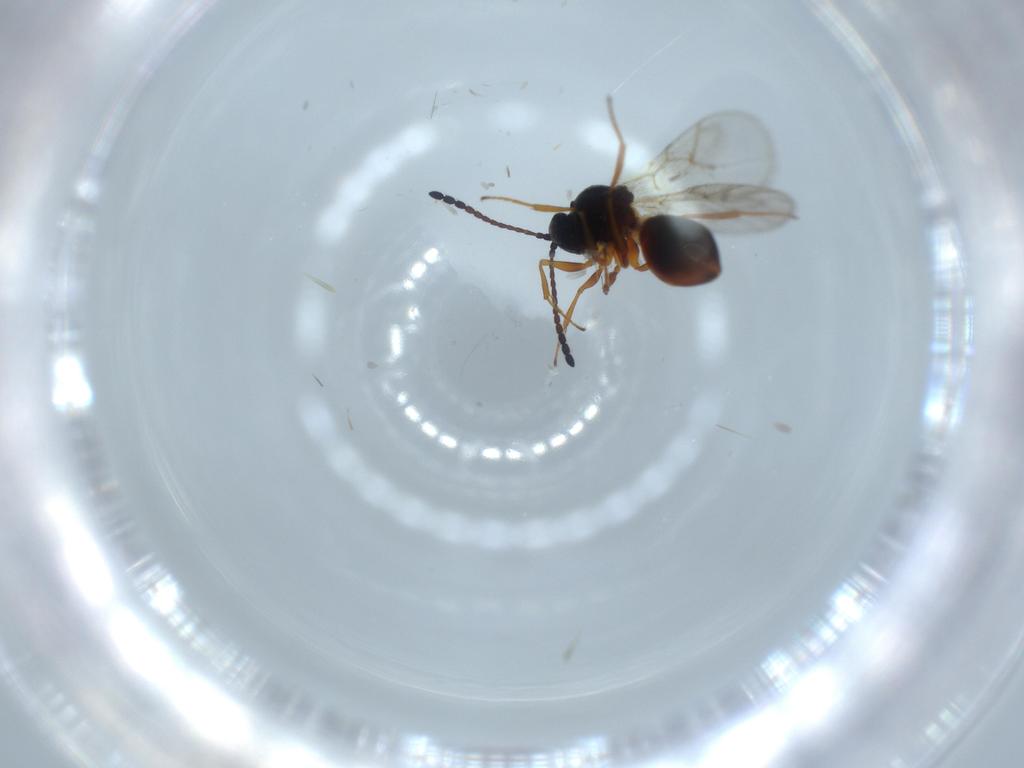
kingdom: Animalia
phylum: Arthropoda
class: Insecta
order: Hymenoptera
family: Figitidae
